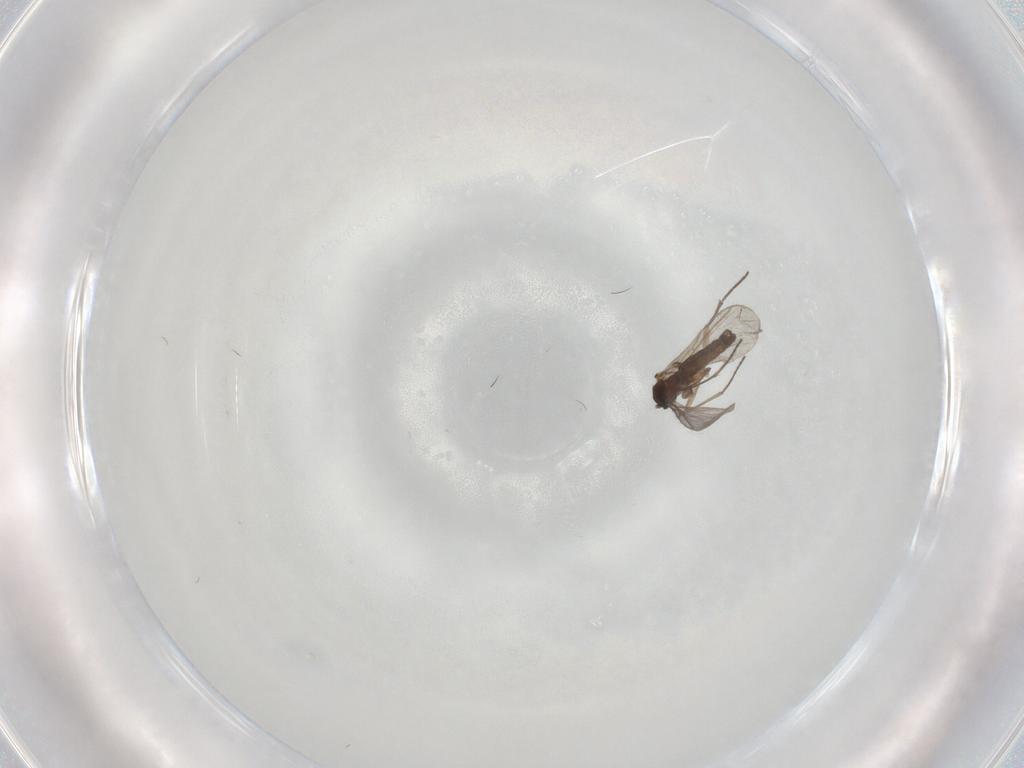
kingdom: Animalia
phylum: Arthropoda
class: Insecta
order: Diptera
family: Sciaridae
